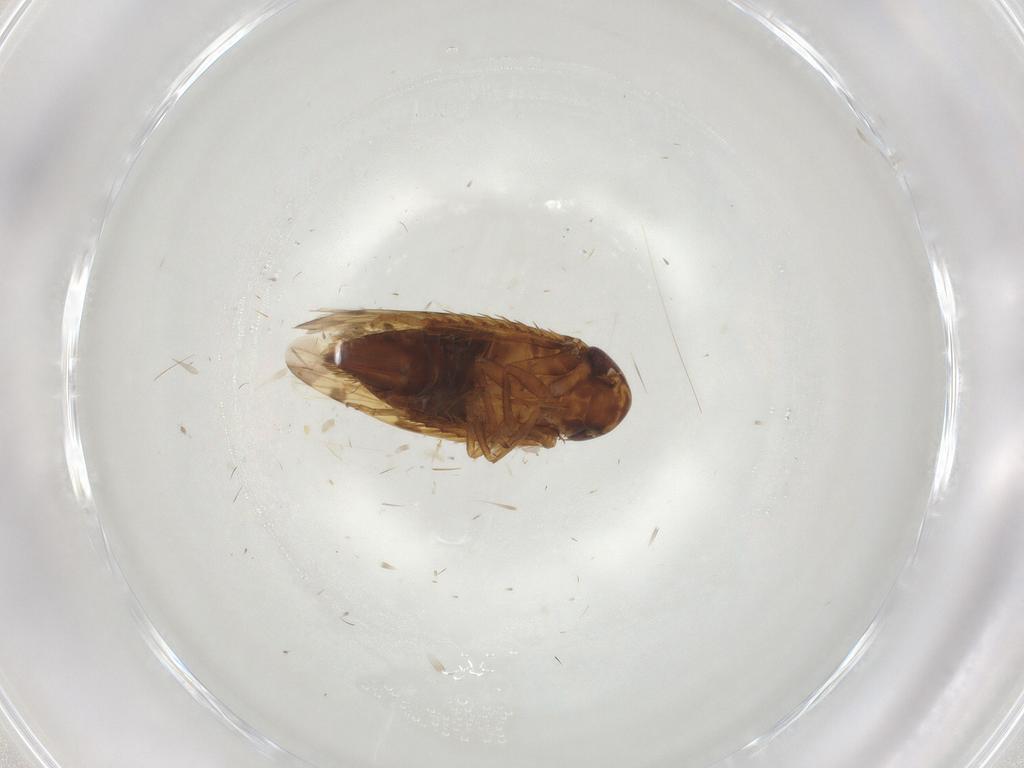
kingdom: Animalia
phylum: Arthropoda
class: Insecta
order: Hemiptera
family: Cicadellidae
